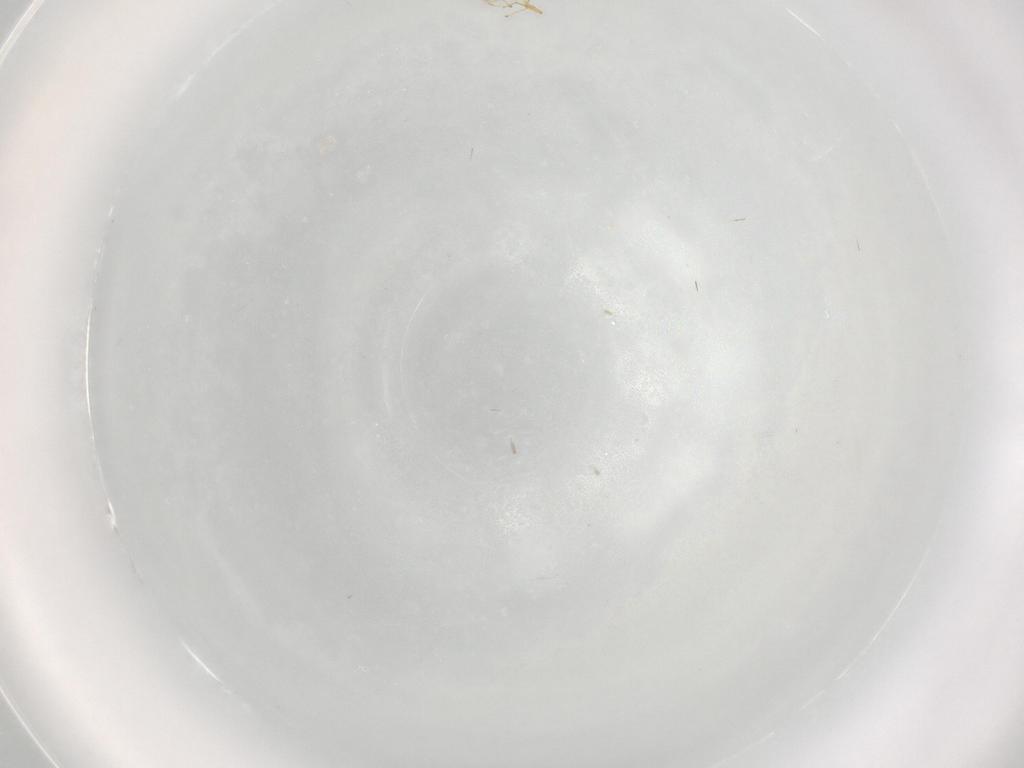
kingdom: Animalia
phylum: Arthropoda
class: Insecta
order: Hymenoptera
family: Mymaridae
